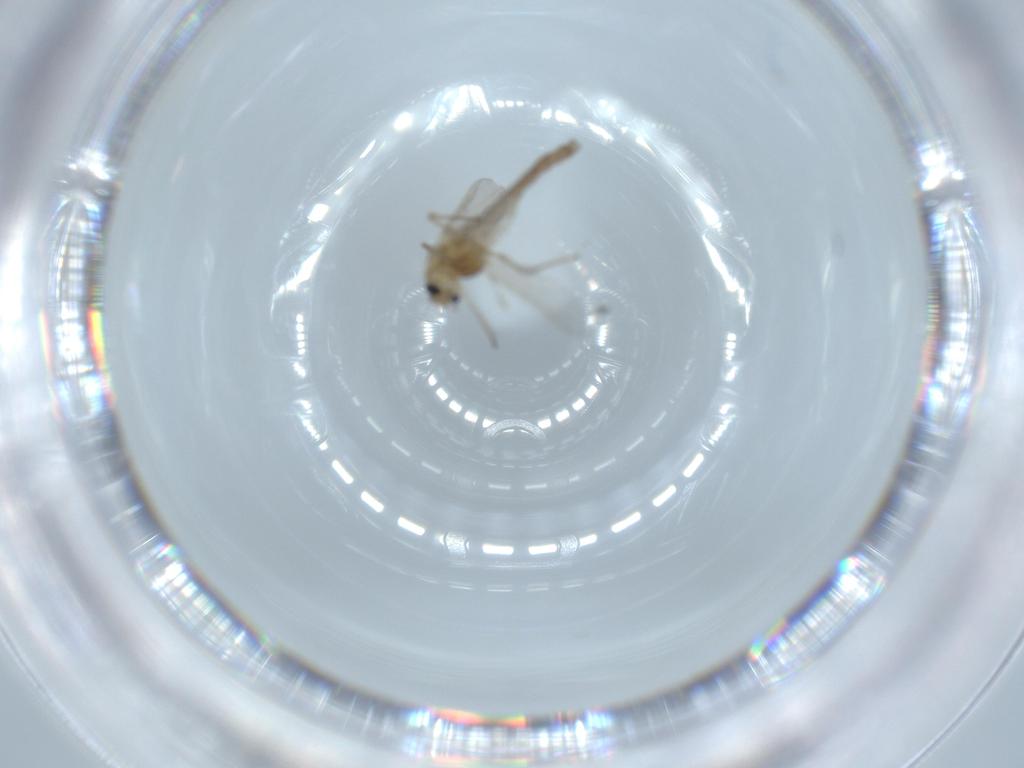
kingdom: Animalia
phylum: Arthropoda
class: Insecta
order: Diptera
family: Chironomidae
